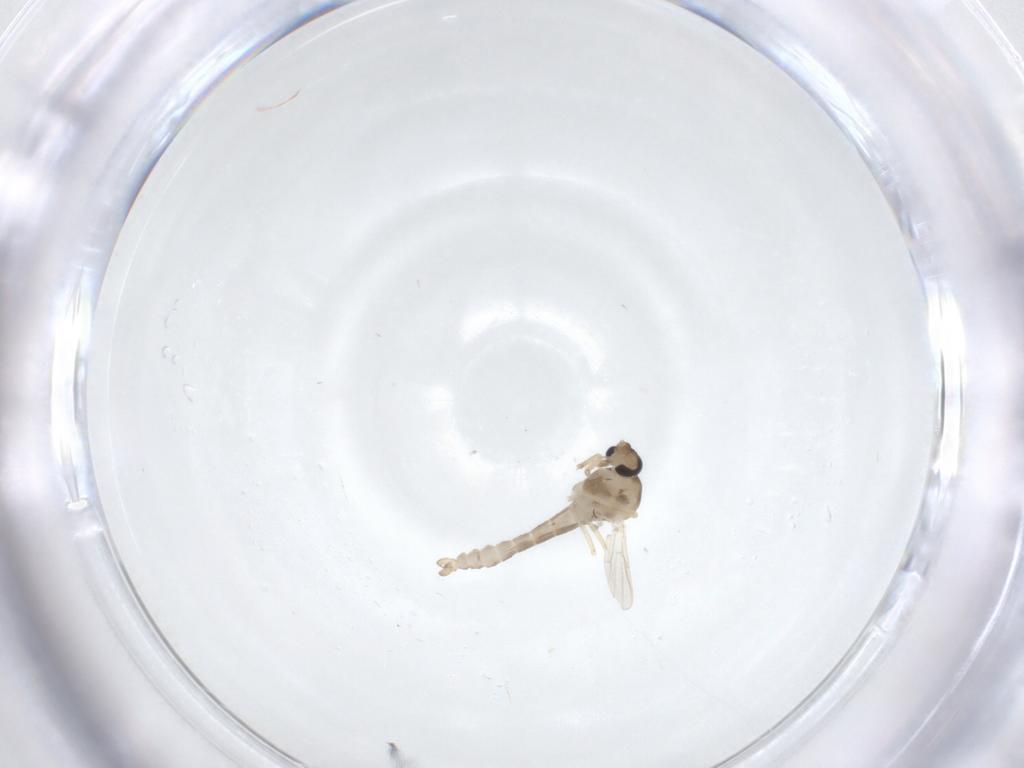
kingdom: Animalia
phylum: Arthropoda
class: Insecta
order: Diptera
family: Ceratopogonidae
